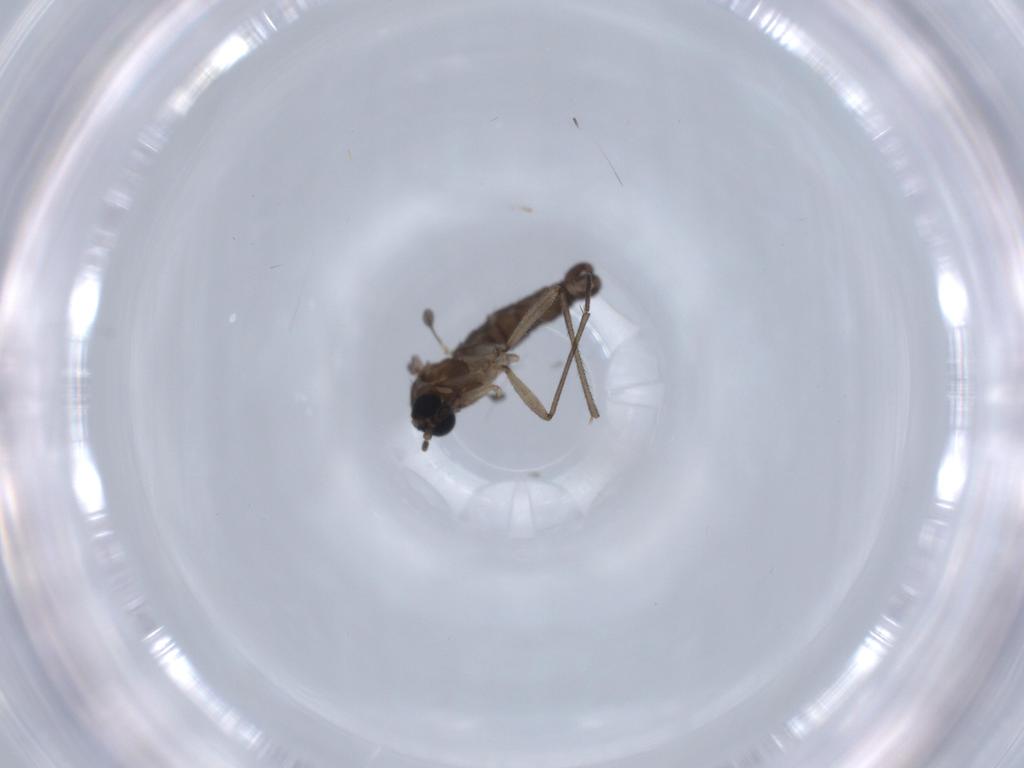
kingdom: Animalia
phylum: Arthropoda
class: Insecta
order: Diptera
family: Sciaridae
